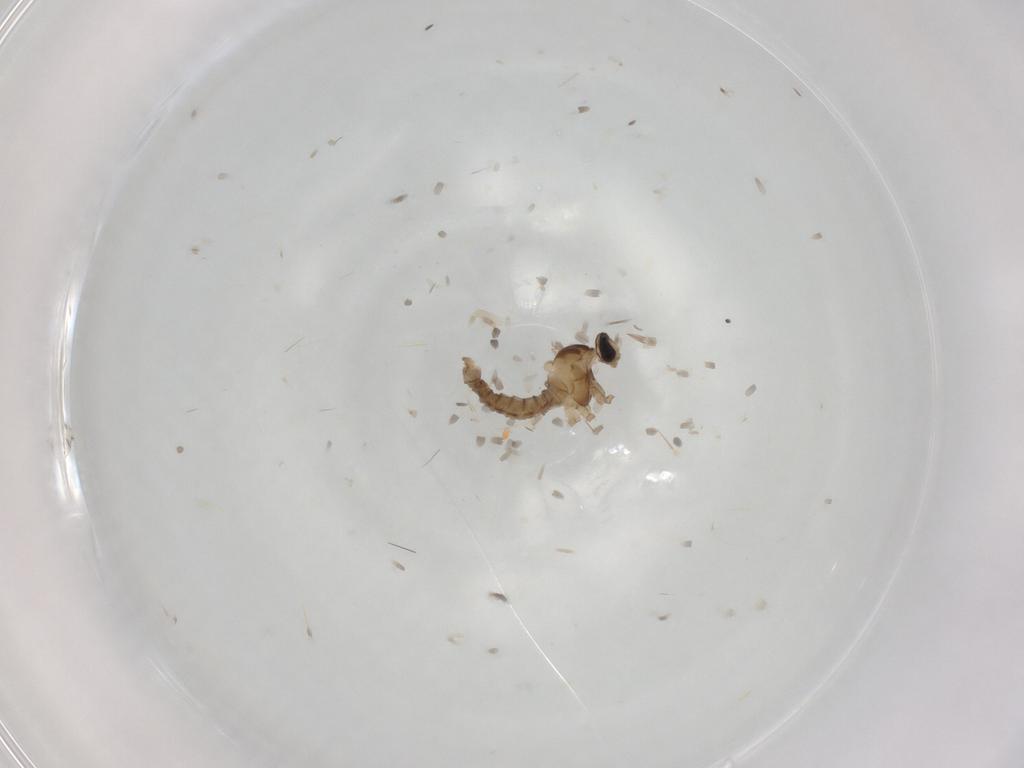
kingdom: Animalia
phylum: Arthropoda
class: Insecta
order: Diptera
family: Cecidomyiidae
